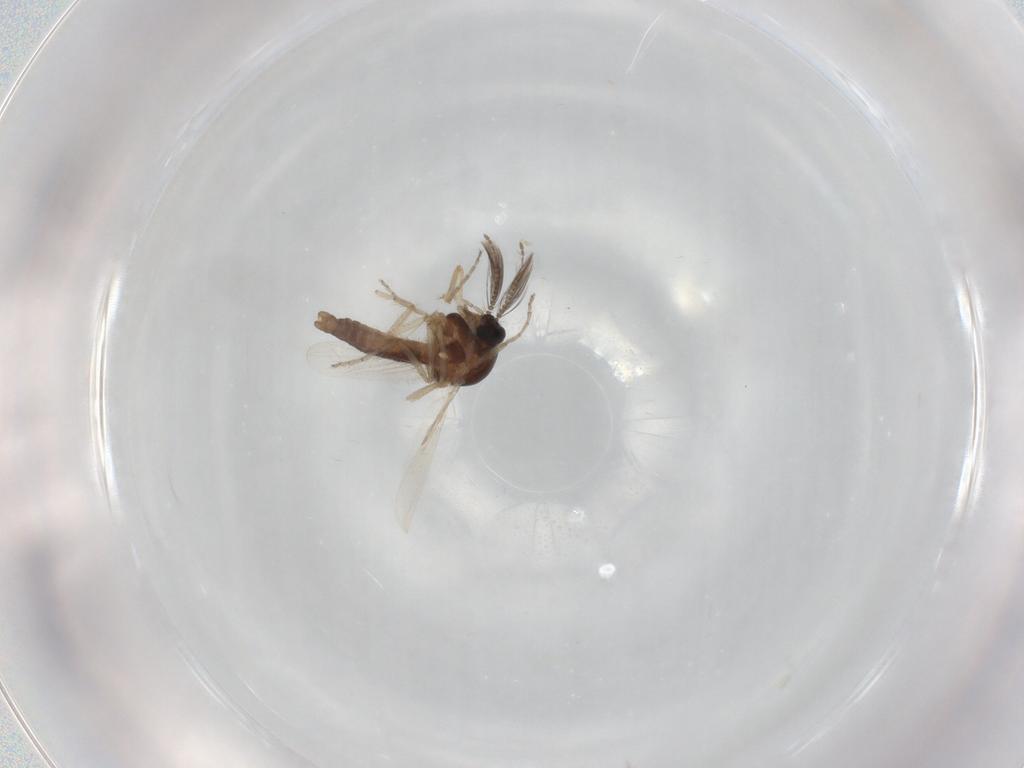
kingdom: Animalia
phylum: Arthropoda
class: Insecta
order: Diptera
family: Ceratopogonidae
